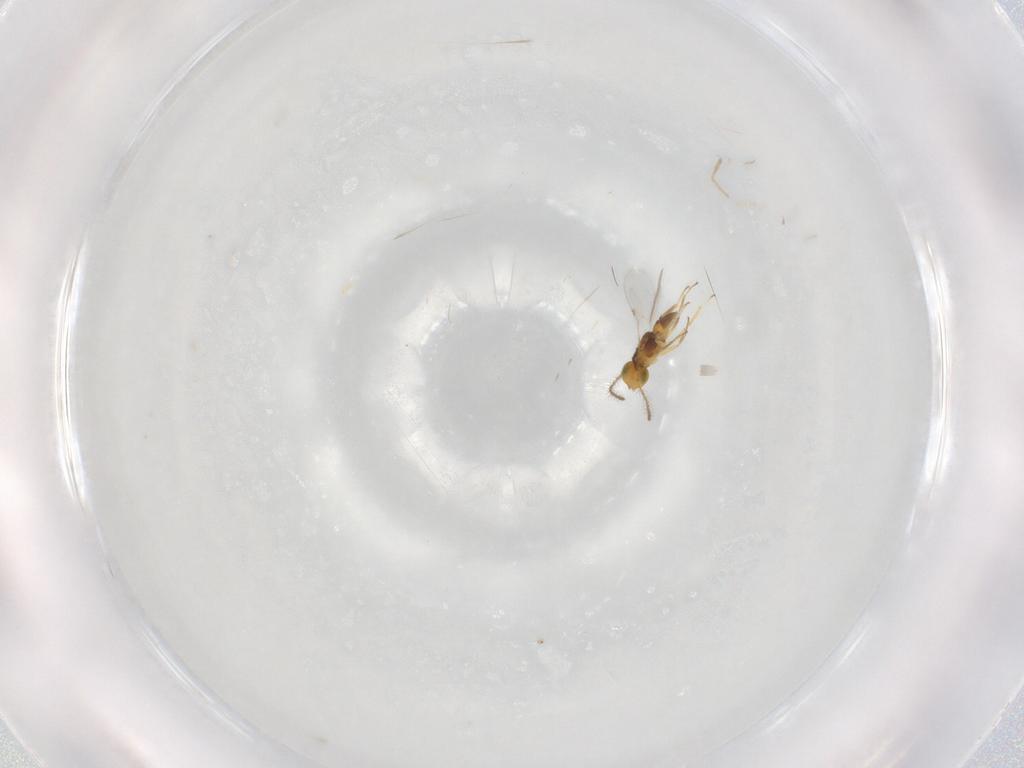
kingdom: Animalia
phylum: Arthropoda
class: Insecta
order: Hymenoptera
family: Encyrtidae
